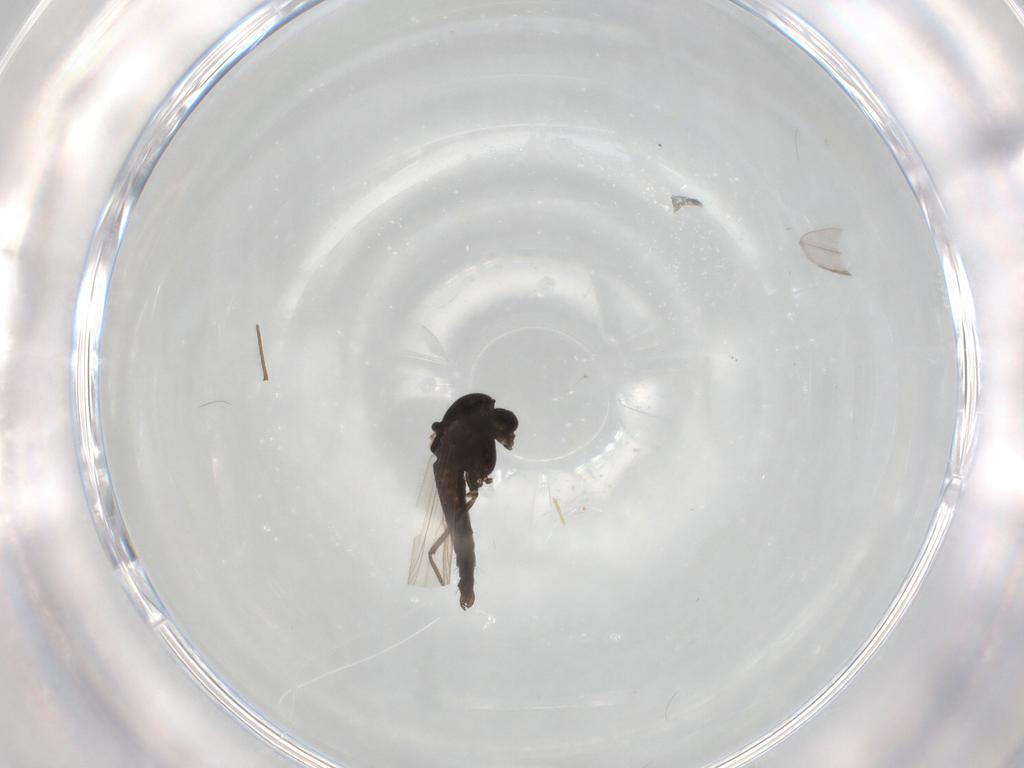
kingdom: Animalia
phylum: Arthropoda
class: Insecta
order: Diptera
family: Chironomidae
